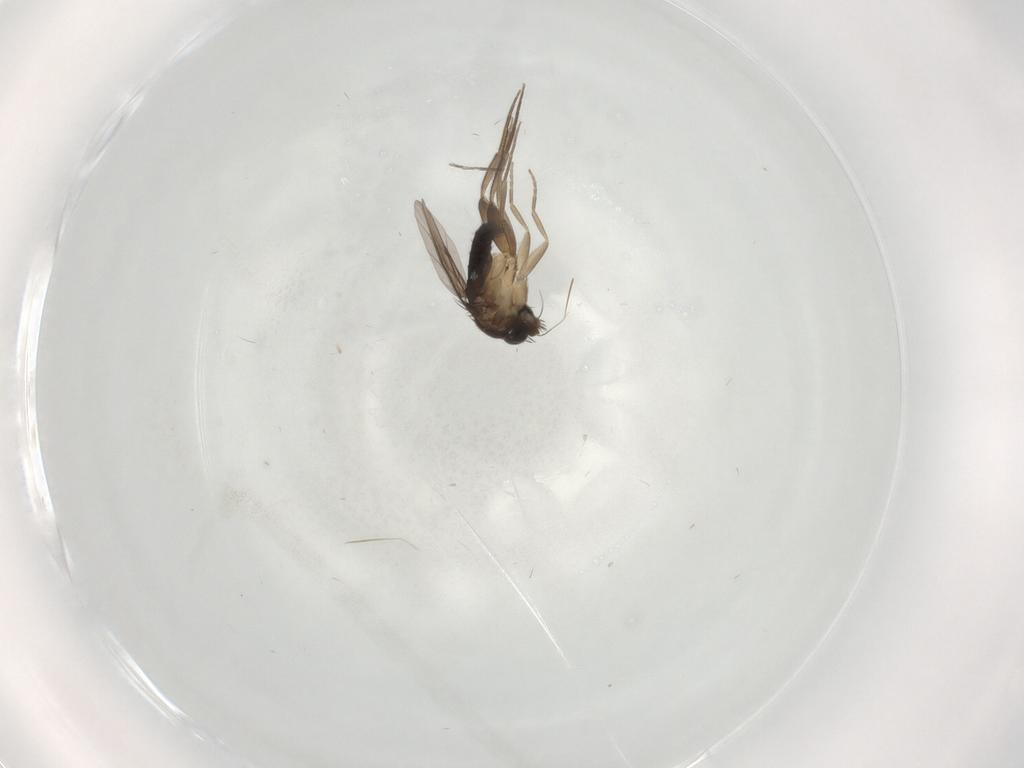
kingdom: Animalia
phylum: Arthropoda
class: Insecta
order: Diptera
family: Phoridae
